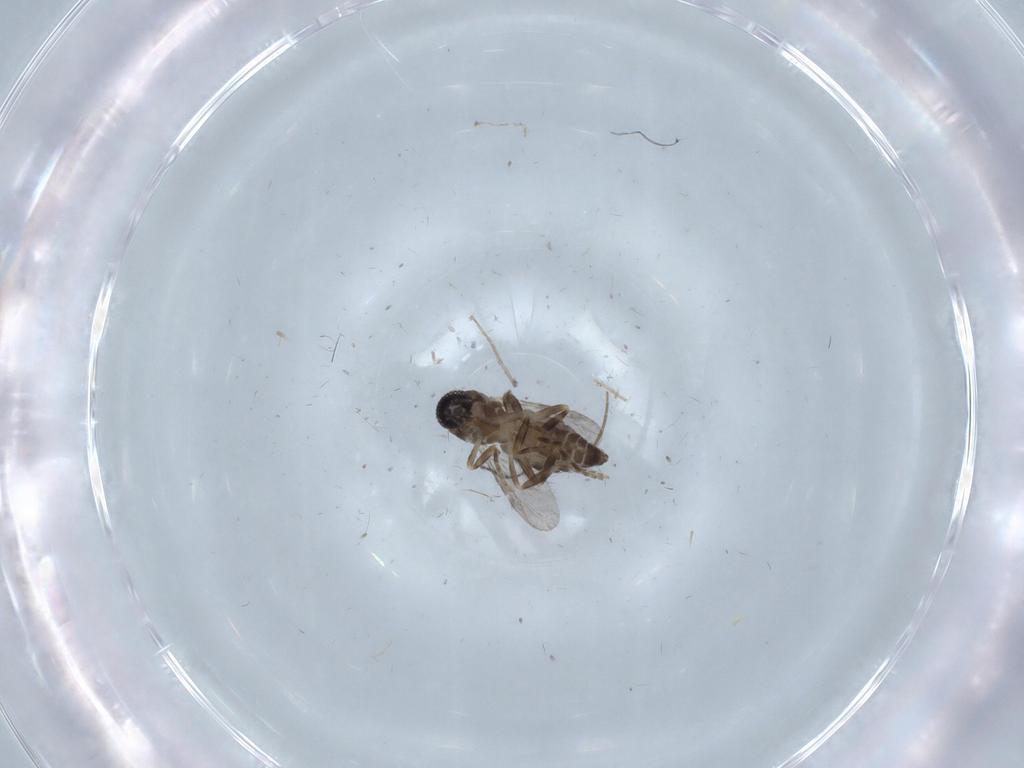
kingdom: Animalia
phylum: Arthropoda
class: Insecta
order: Diptera
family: Ceratopogonidae
